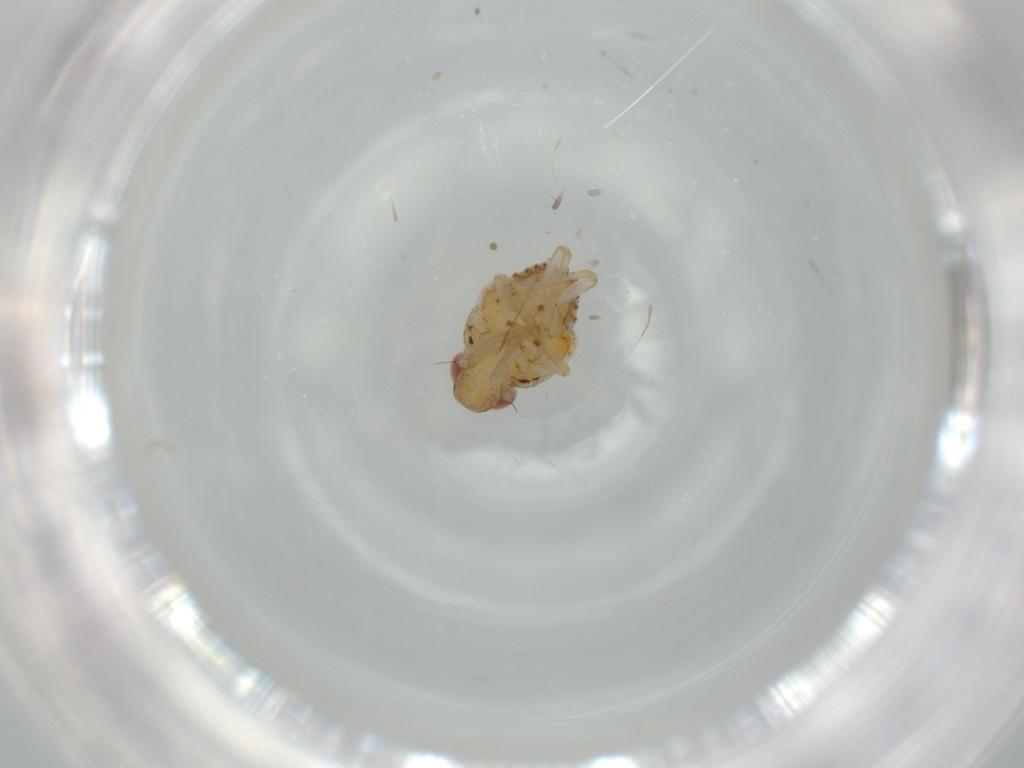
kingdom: Animalia
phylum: Arthropoda
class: Insecta
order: Hemiptera
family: Issidae
